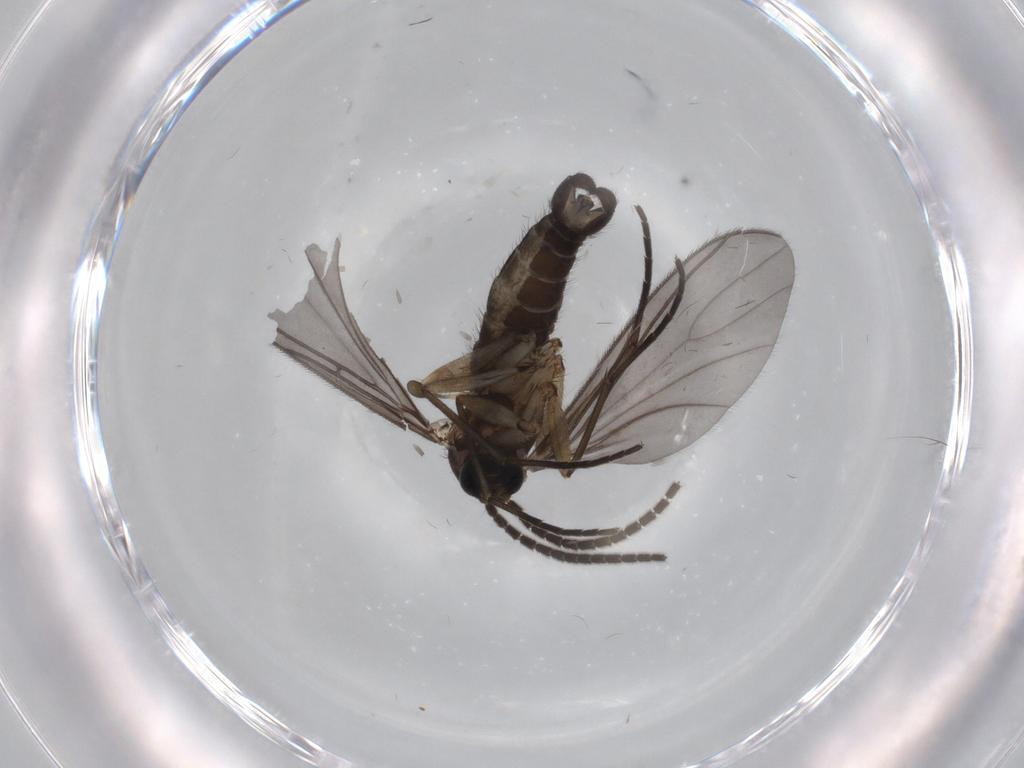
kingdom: Animalia
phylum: Arthropoda
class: Insecta
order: Diptera
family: Sciaridae
